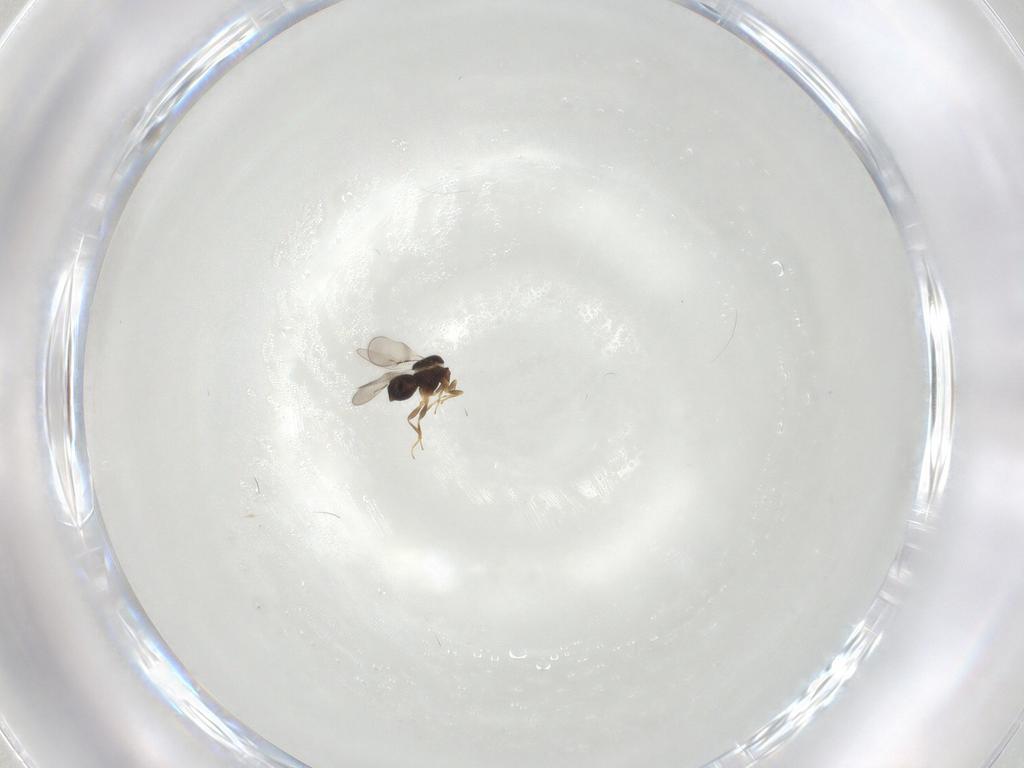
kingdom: Animalia
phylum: Arthropoda
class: Insecta
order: Hymenoptera
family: Ceraphronidae
